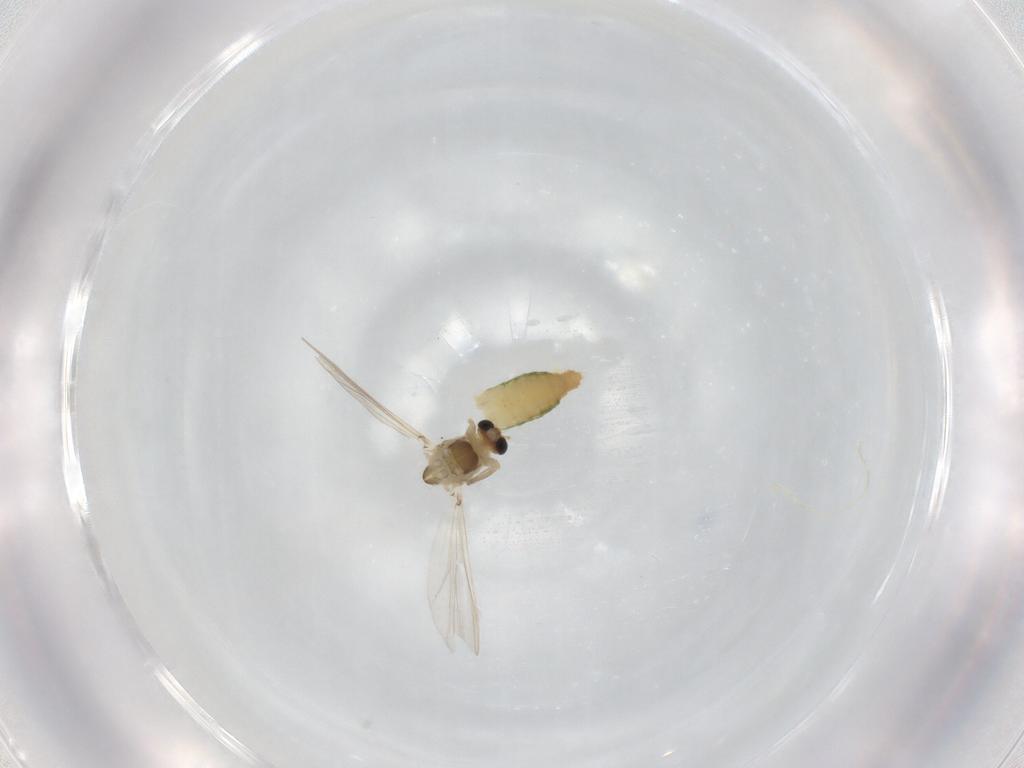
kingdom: Animalia
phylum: Arthropoda
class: Insecta
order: Diptera
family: Chironomidae
